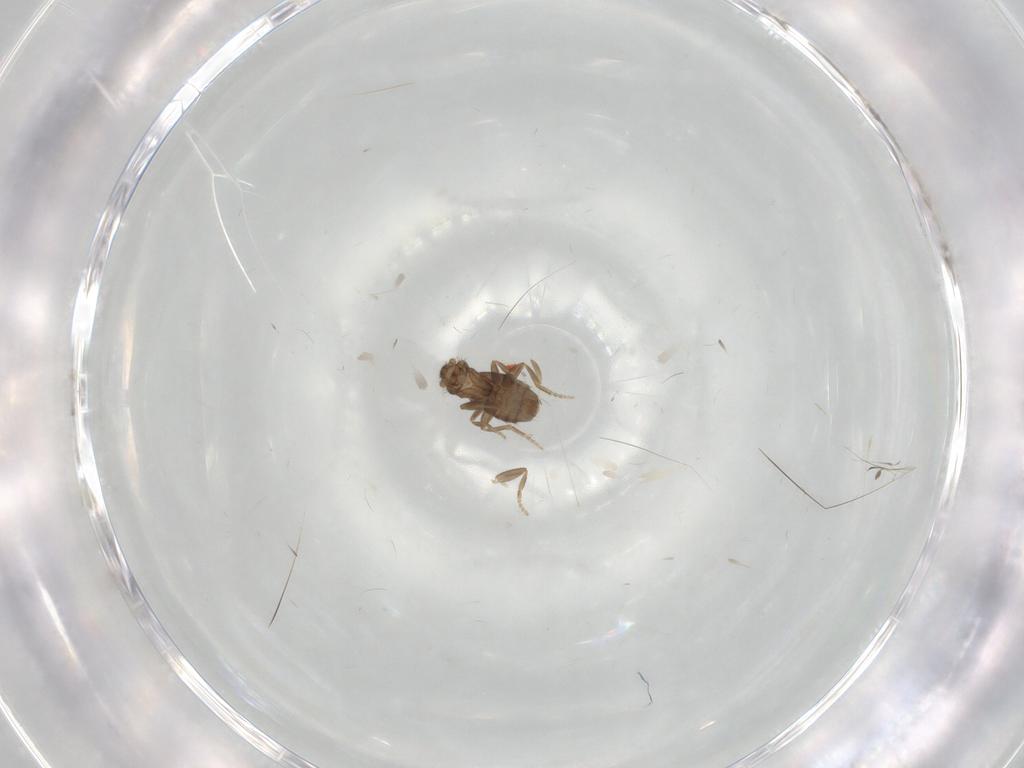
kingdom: Animalia
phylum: Arthropoda
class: Insecta
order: Diptera
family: Phoridae
